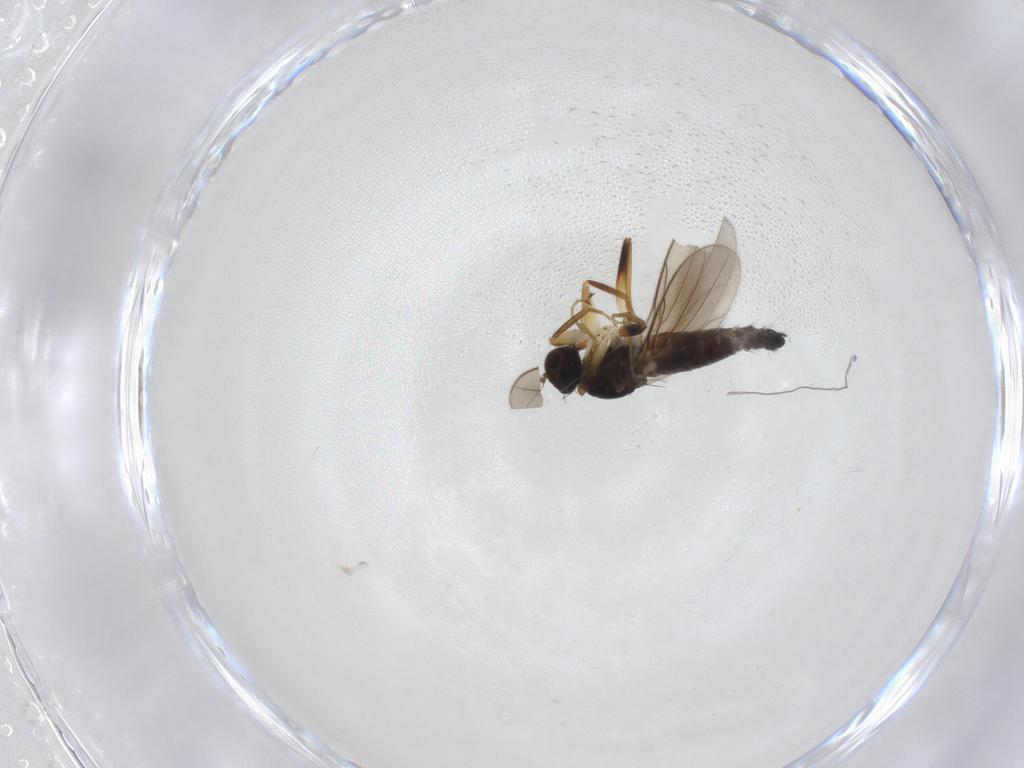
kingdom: Animalia
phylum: Arthropoda
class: Insecta
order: Diptera
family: Hybotidae
